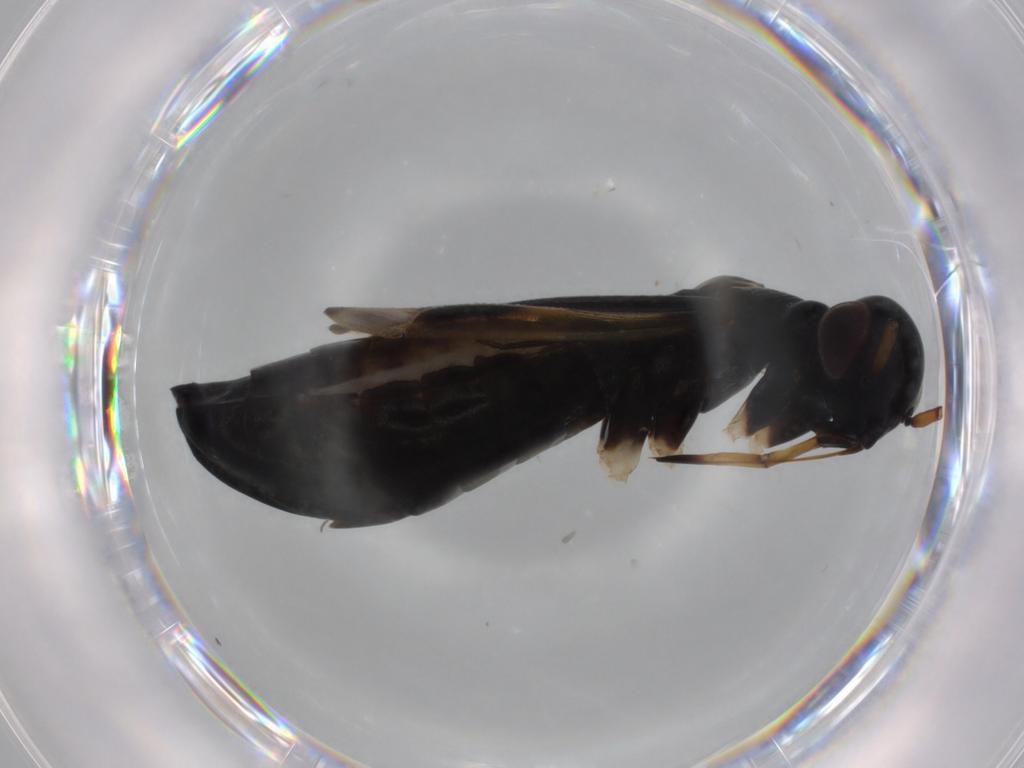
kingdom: Animalia
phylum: Arthropoda
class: Insecta
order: Hemiptera
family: Miridae
